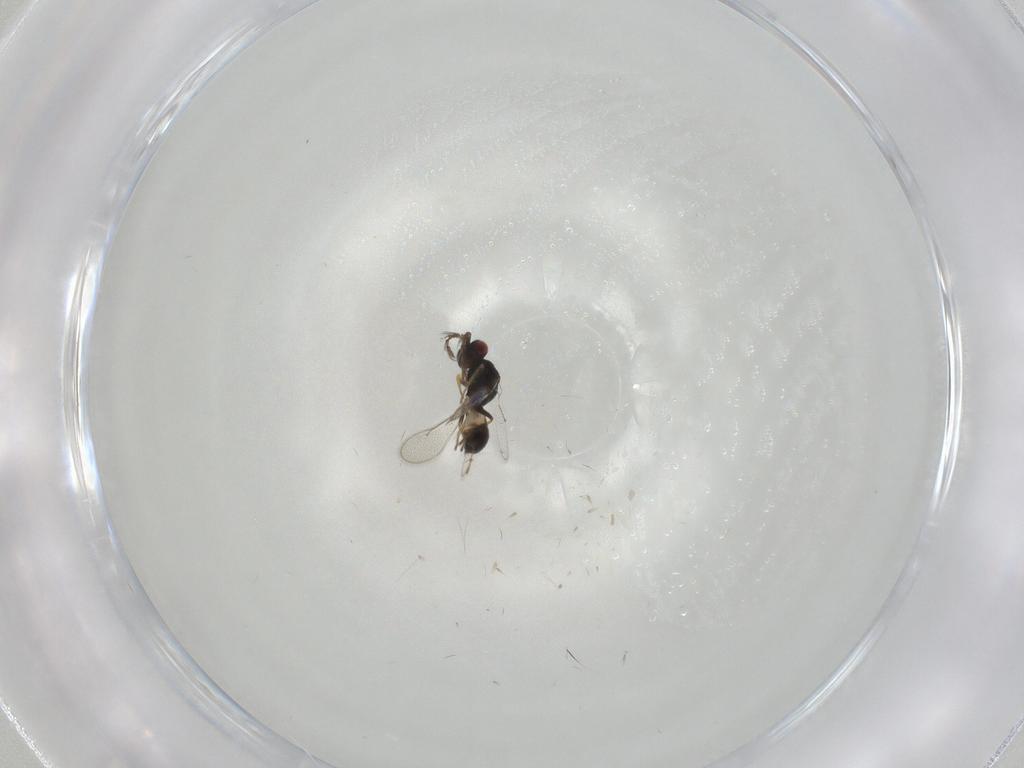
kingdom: Animalia
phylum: Arthropoda
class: Insecta
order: Hymenoptera
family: Eulophidae
